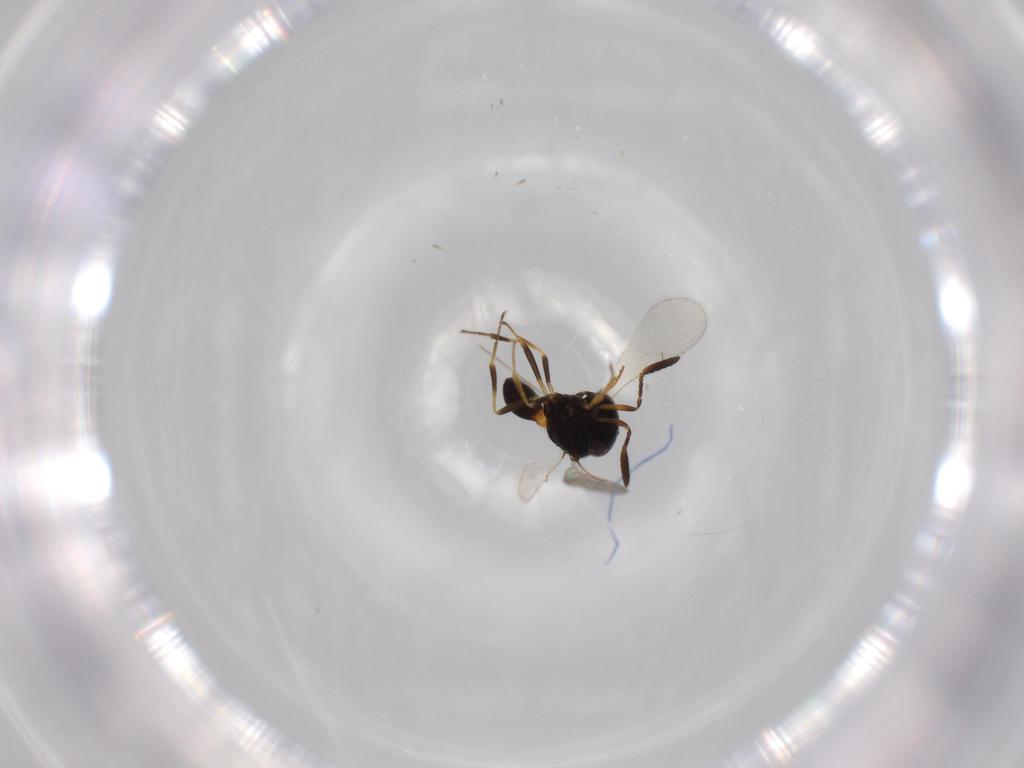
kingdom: Animalia
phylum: Arthropoda
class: Insecta
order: Hymenoptera
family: Scelionidae
